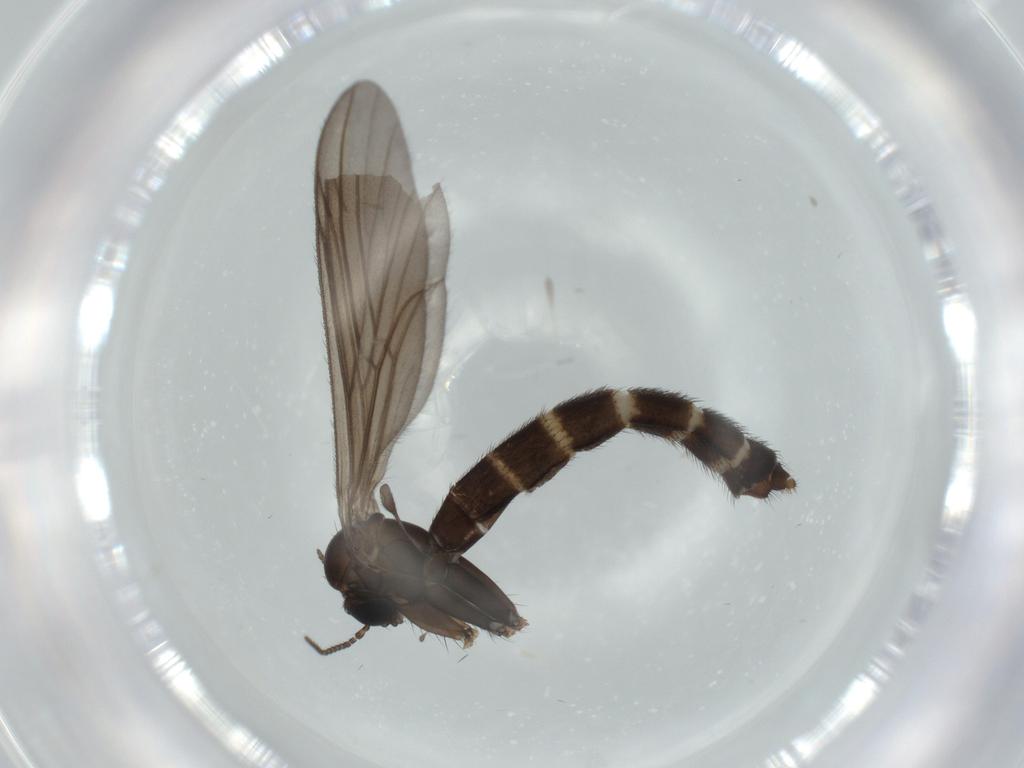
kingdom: Animalia
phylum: Arthropoda
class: Insecta
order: Diptera
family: Ditomyiidae
